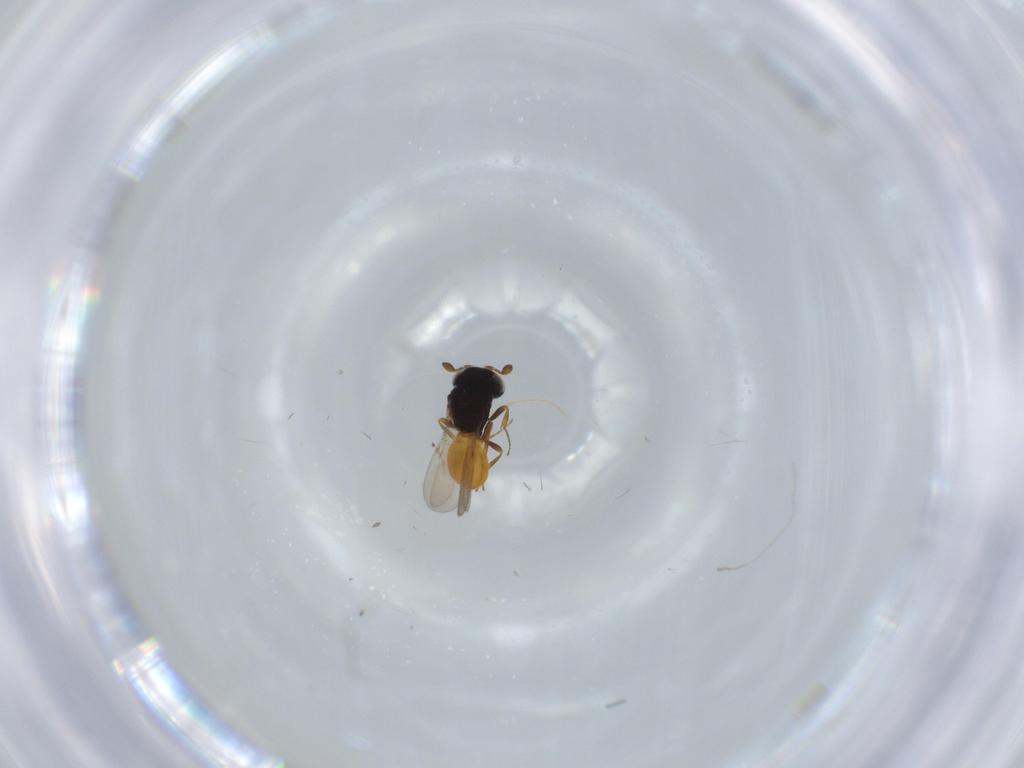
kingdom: Animalia
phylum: Arthropoda
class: Insecta
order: Hymenoptera
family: Scelionidae
